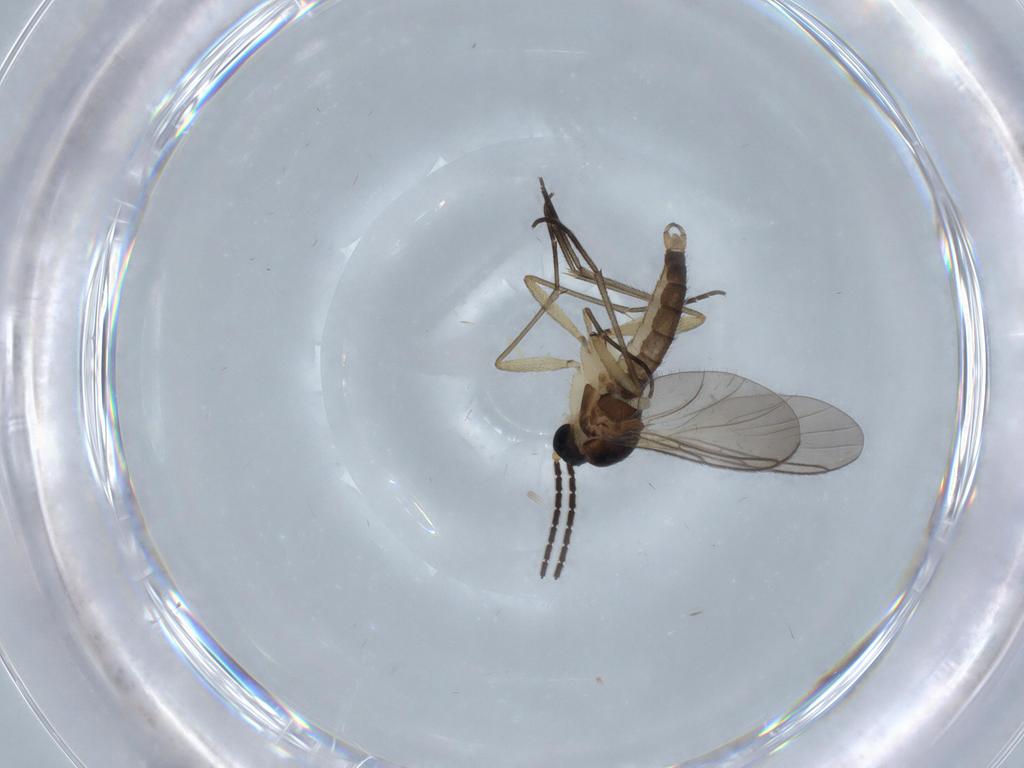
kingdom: Animalia
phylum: Arthropoda
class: Insecta
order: Diptera
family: Sciaridae
